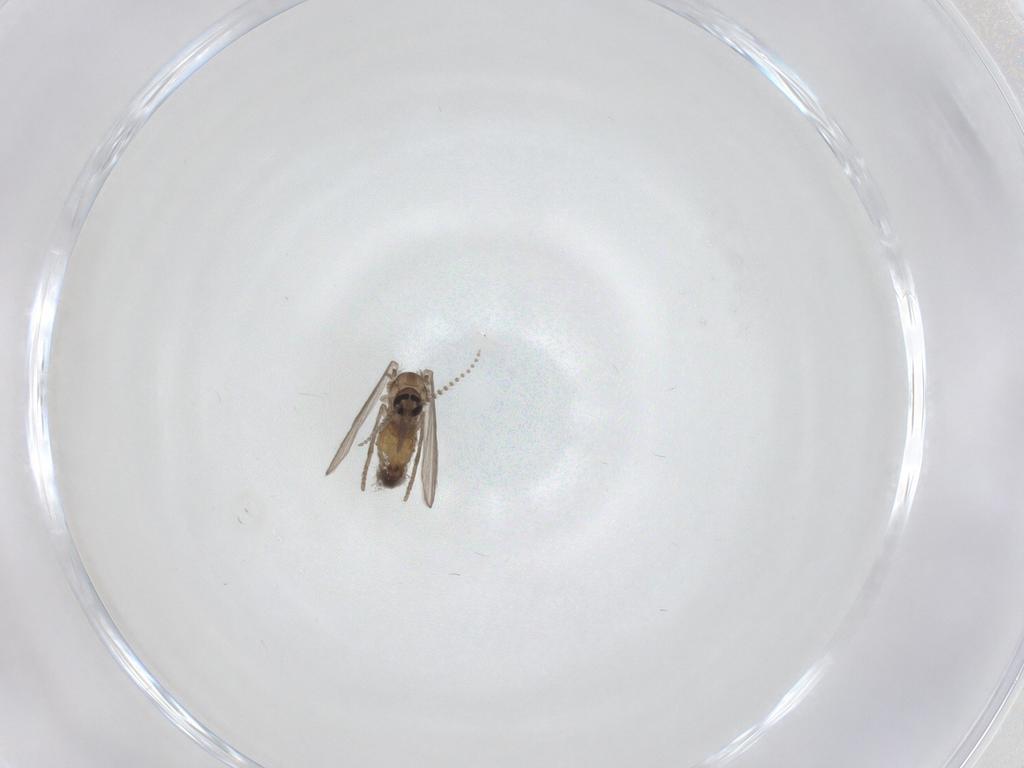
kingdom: Animalia
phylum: Arthropoda
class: Insecta
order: Diptera
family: Psychodidae
